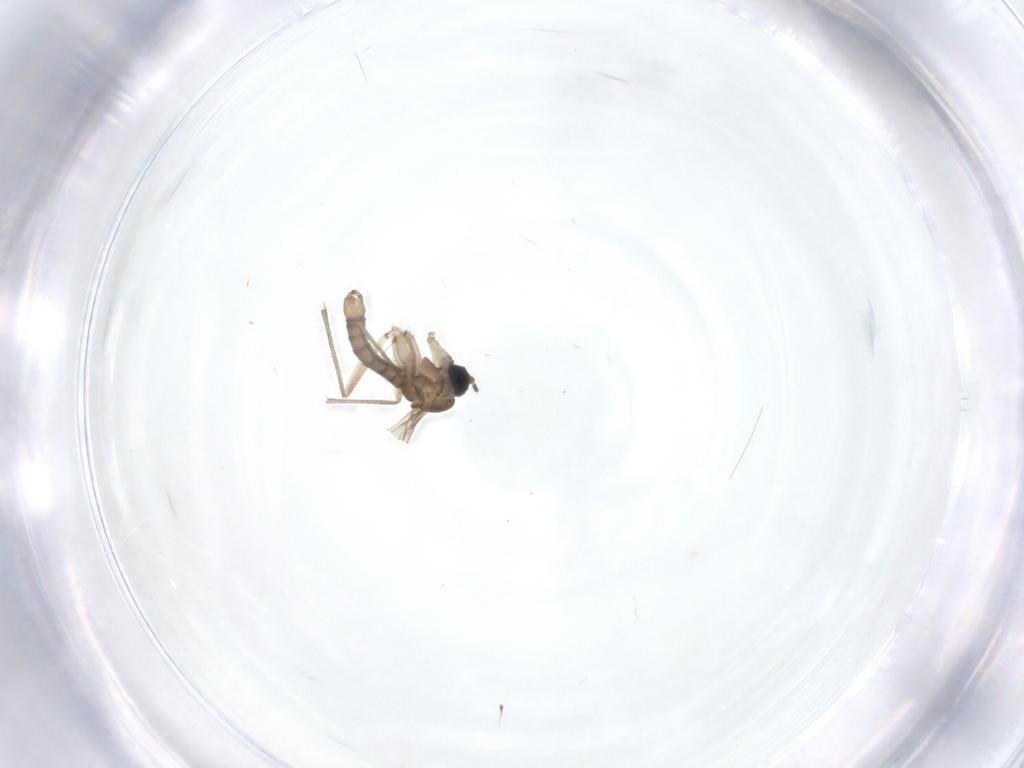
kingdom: Animalia
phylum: Arthropoda
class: Insecta
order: Diptera
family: Sciaridae
